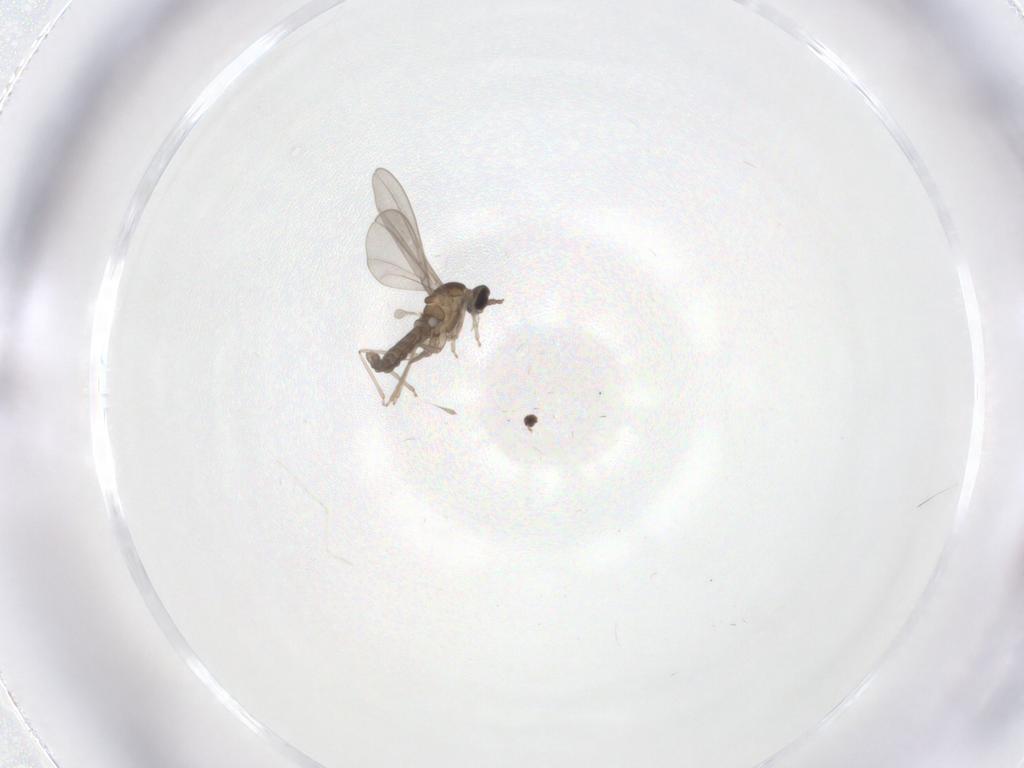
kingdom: Animalia
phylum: Arthropoda
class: Insecta
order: Diptera
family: Cecidomyiidae
